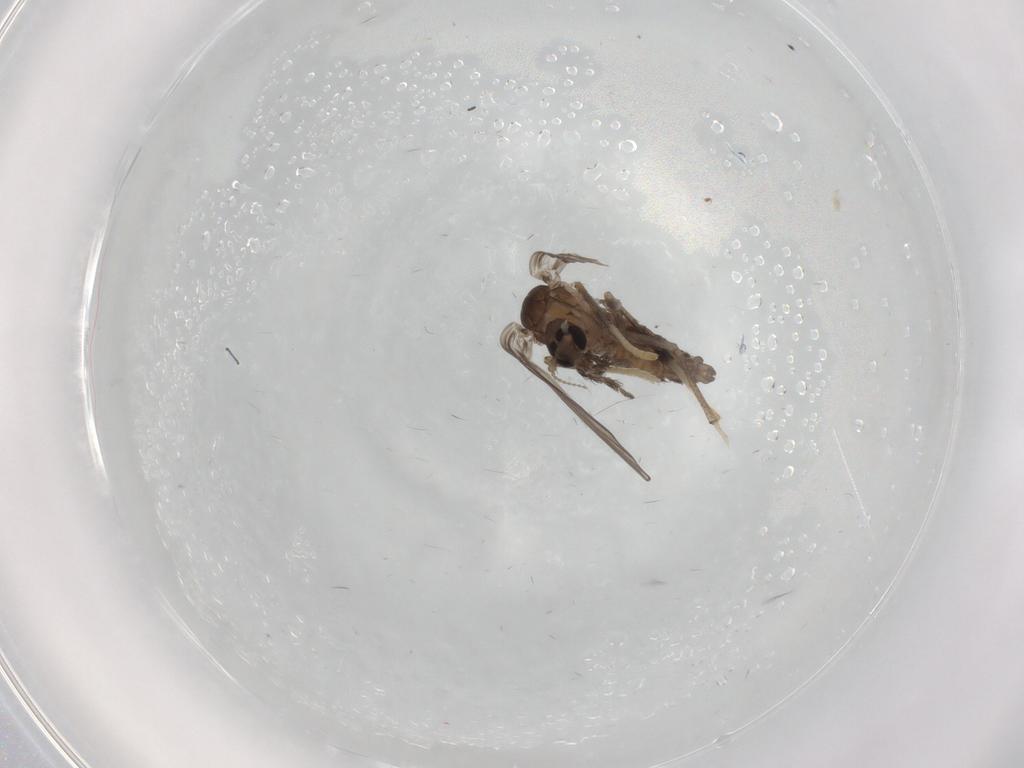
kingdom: Animalia
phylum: Arthropoda
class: Insecta
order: Diptera
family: Psychodidae
